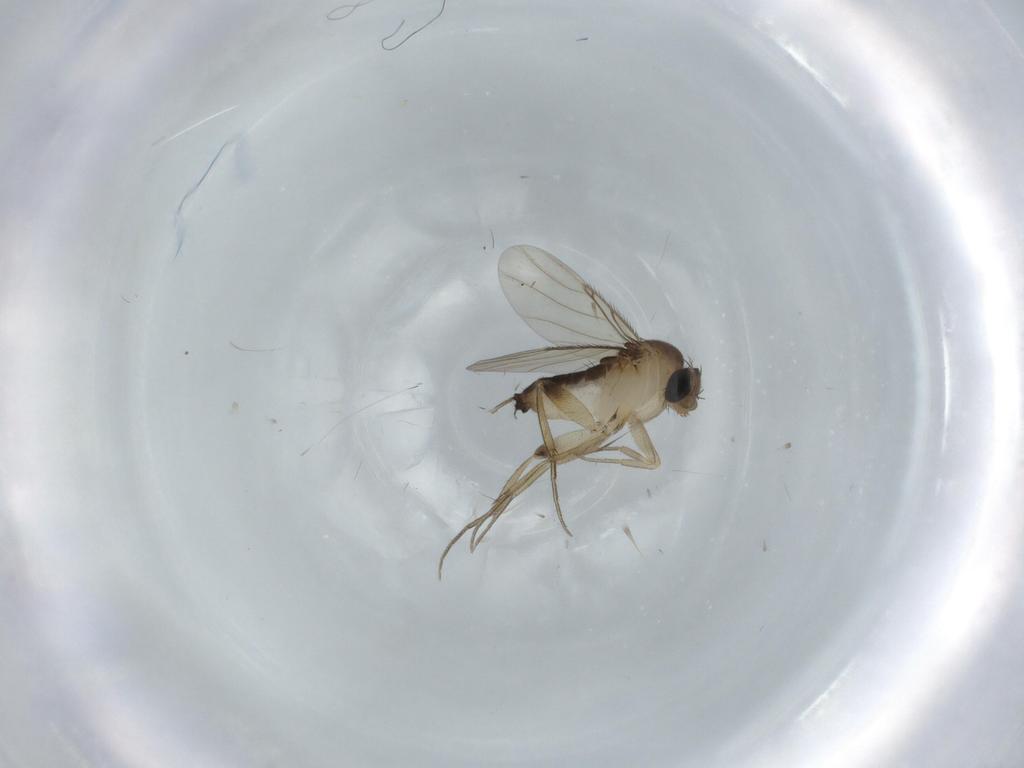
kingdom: Animalia
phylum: Arthropoda
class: Insecta
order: Diptera
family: Phoridae
